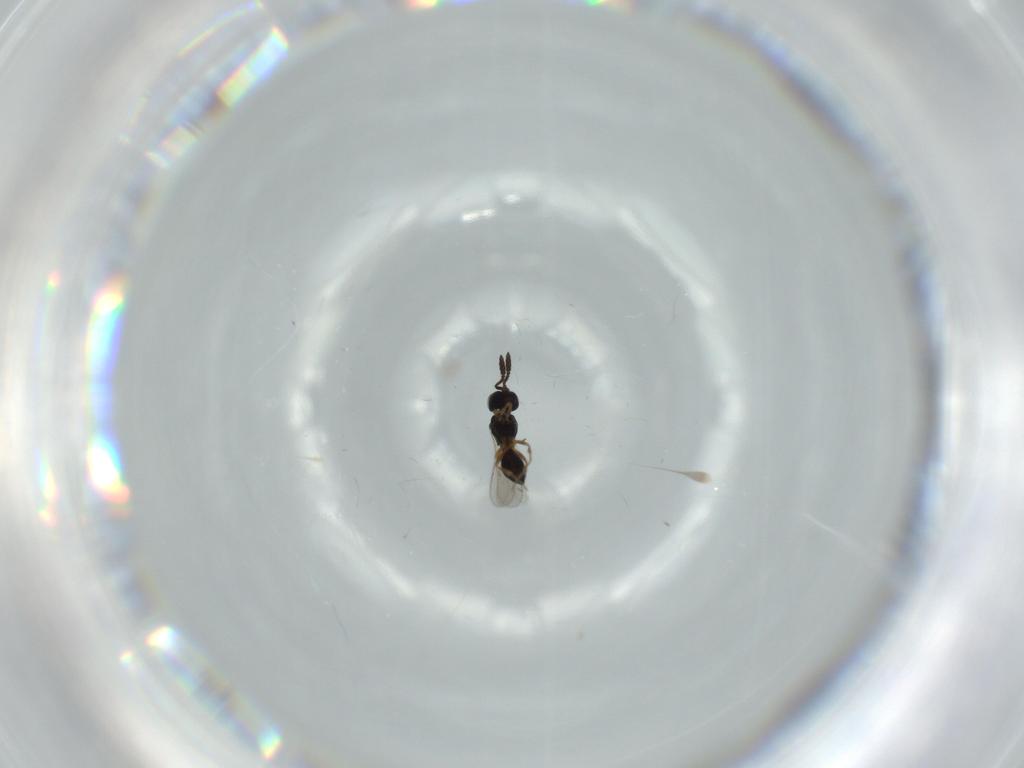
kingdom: Animalia
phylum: Arthropoda
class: Insecta
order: Hymenoptera
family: Scelionidae
